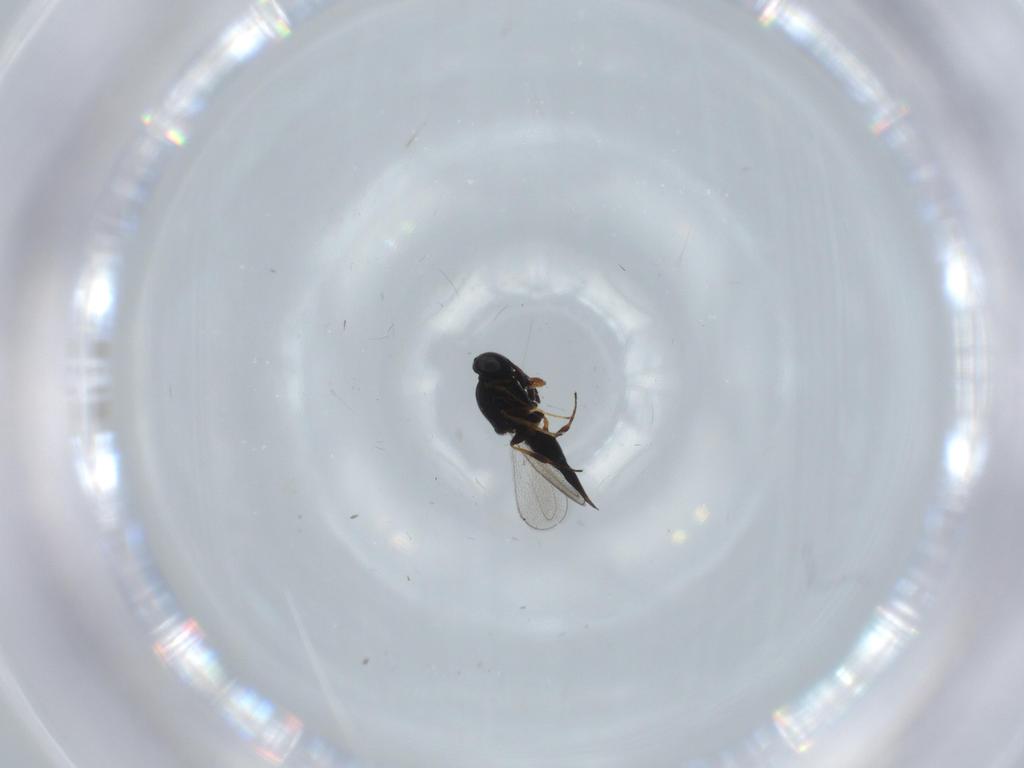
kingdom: Animalia
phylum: Arthropoda
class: Insecta
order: Hymenoptera
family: Platygastridae
